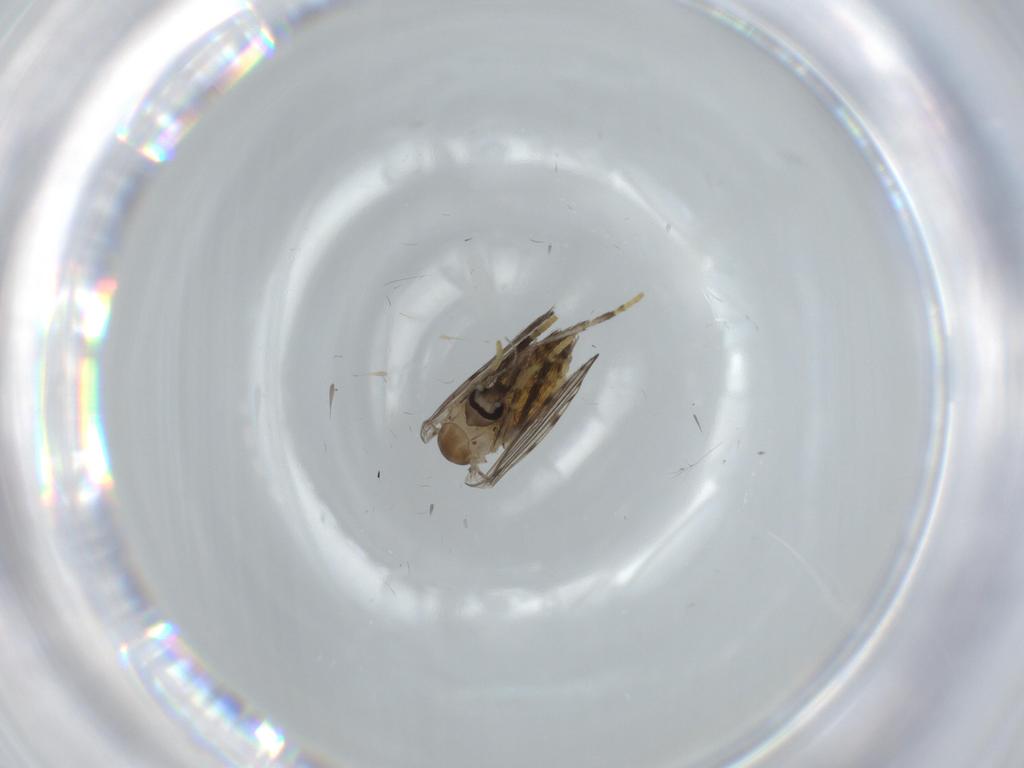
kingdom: Animalia
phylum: Arthropoda
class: Insecta
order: Diptera
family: Psychodidae
